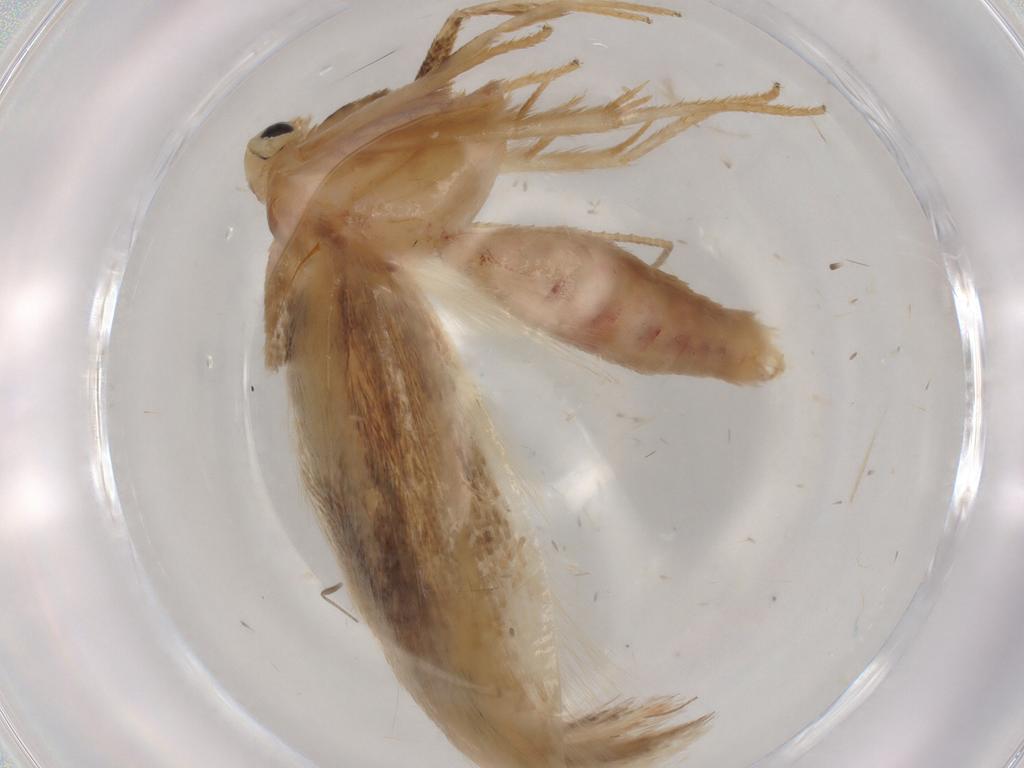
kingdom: Animalia
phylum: Arthropoda
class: Insecta
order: Lepidoptera
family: Geometridae
